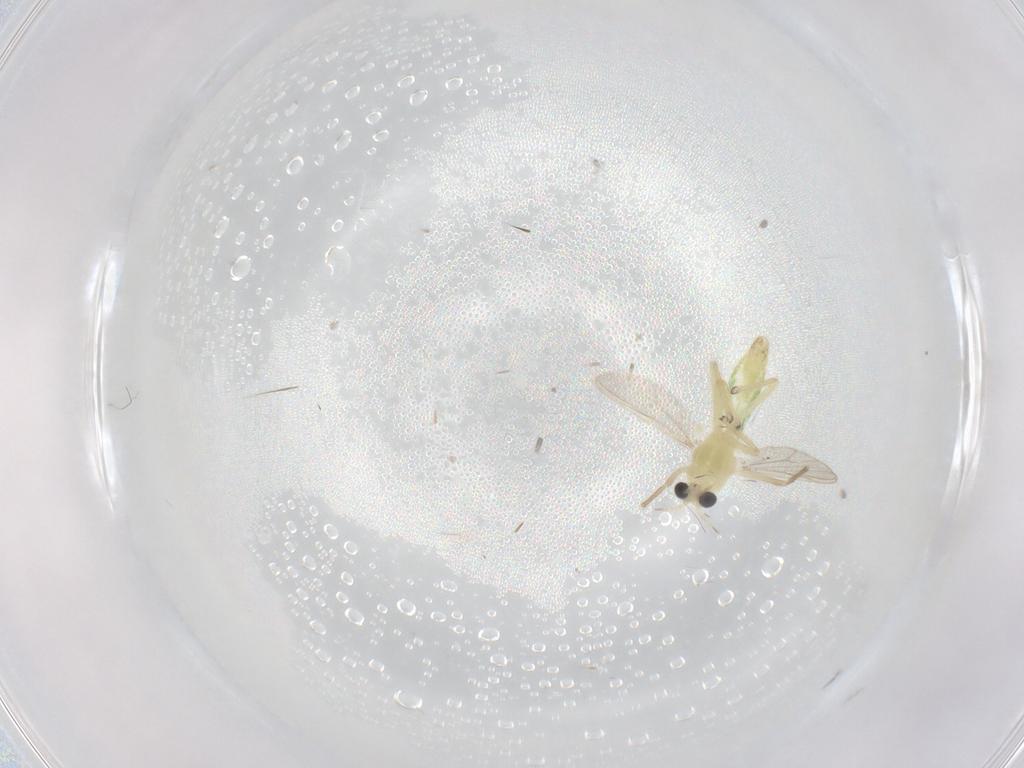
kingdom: Animalia
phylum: Arthropoda
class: Insecta
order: Diptera
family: Chironomidae
